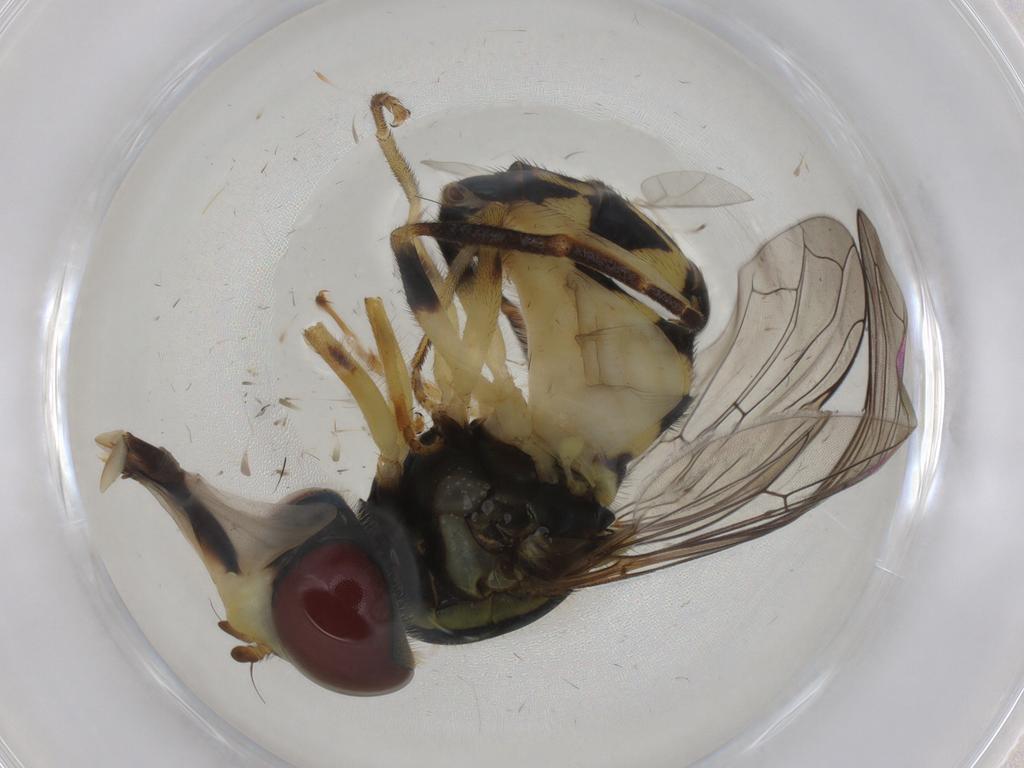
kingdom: Animalia
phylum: Arthropoda
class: Insecta
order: Diptera
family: Syrphidae
